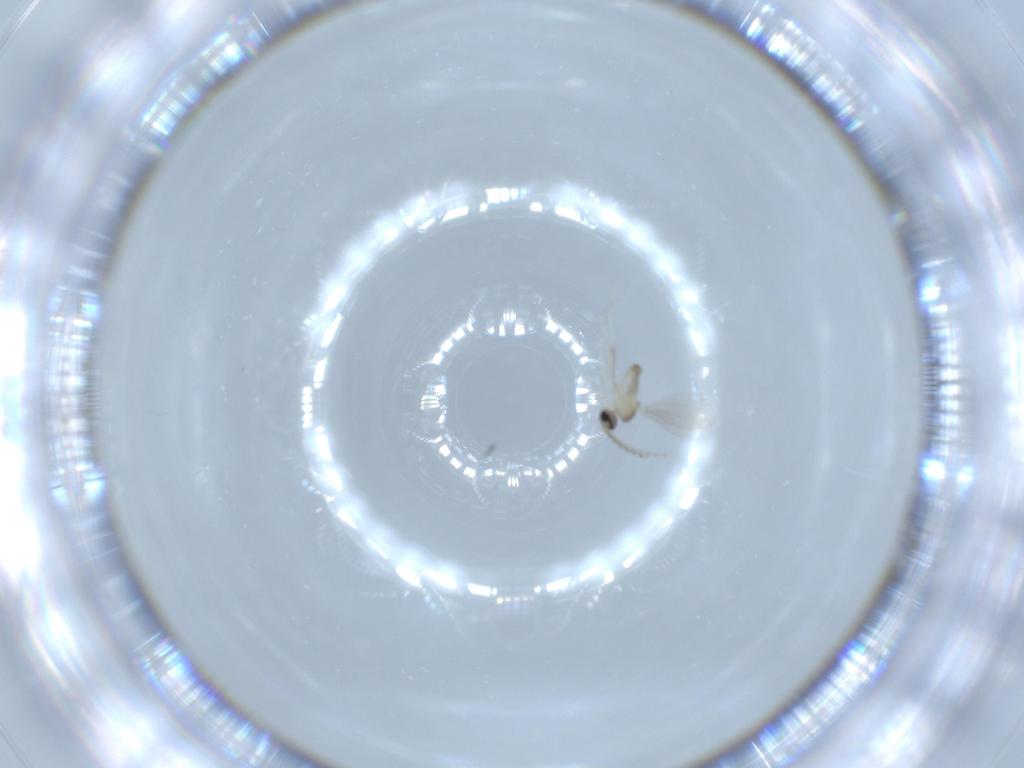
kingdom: Animalia
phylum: Arthropoda
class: Insecta
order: Diptera
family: Cecidomyiidae
